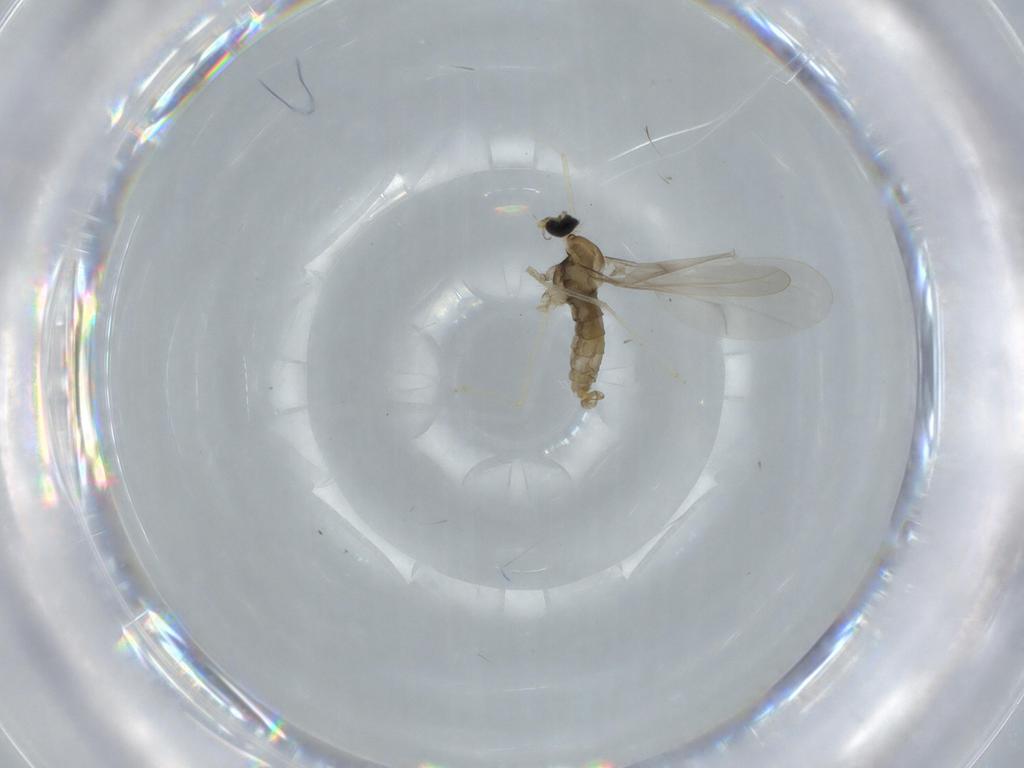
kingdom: Animalia
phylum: Arthropoda
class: Insecta
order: Diptera
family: Cecidomyiidae
